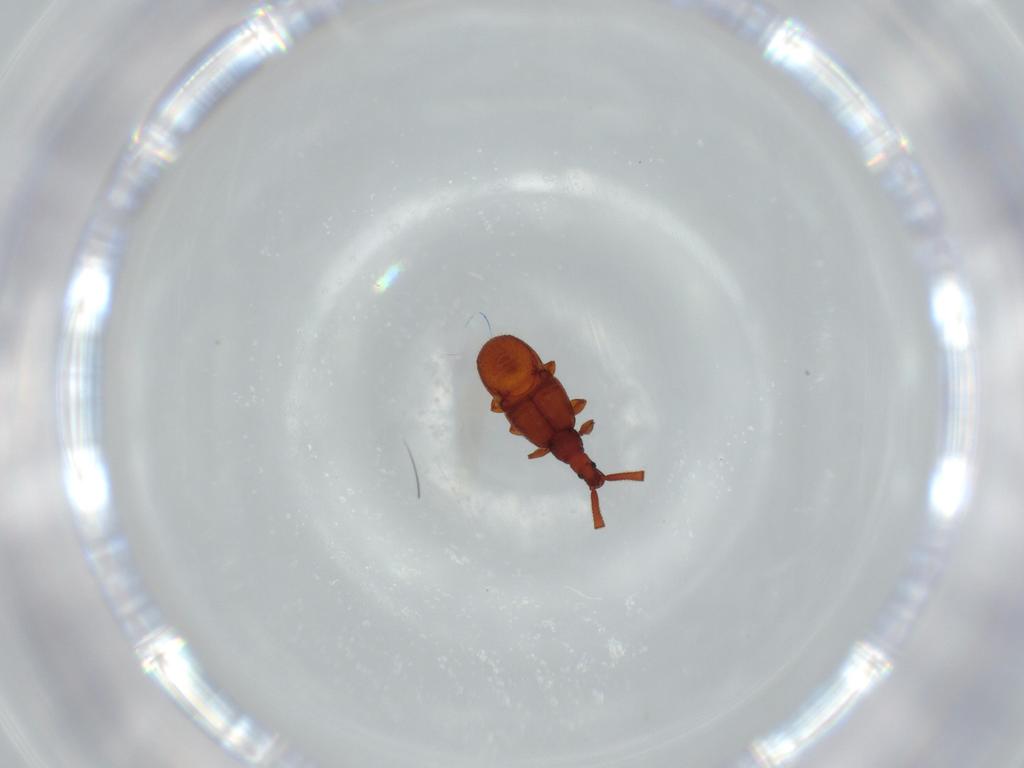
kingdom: Animalia
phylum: Arthropoda
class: Insecta
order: Coleoptera
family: Staphylinidae
